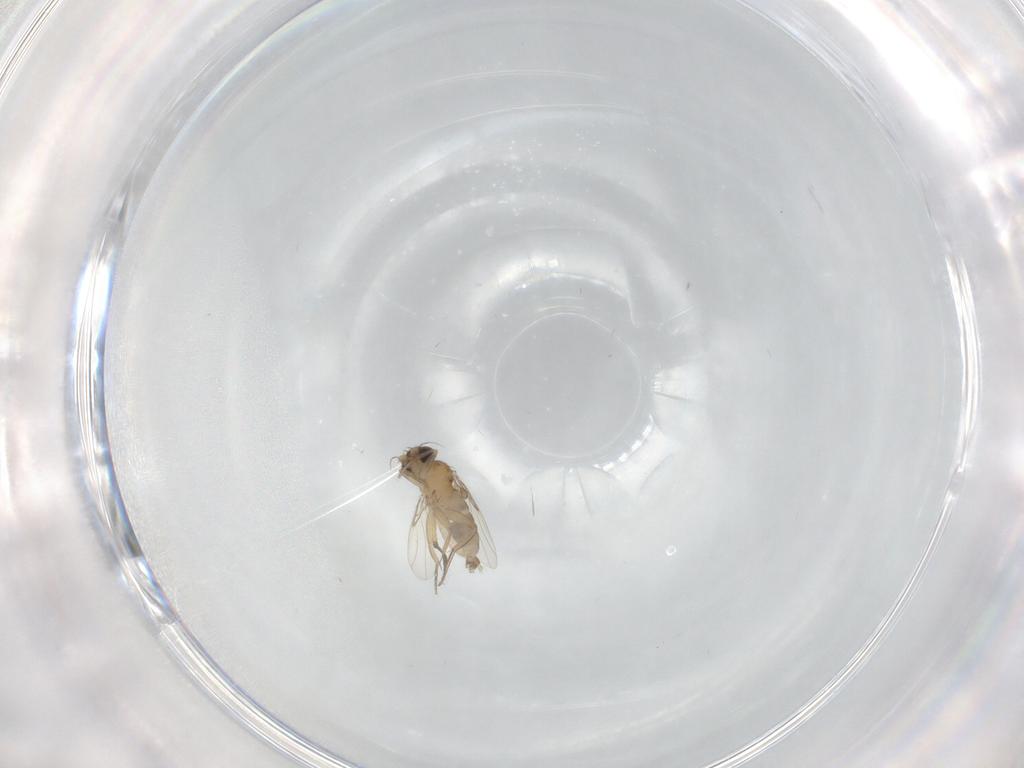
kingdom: Animalia
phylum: Arthropoda
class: Insecta
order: Diptera
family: Phoridae
